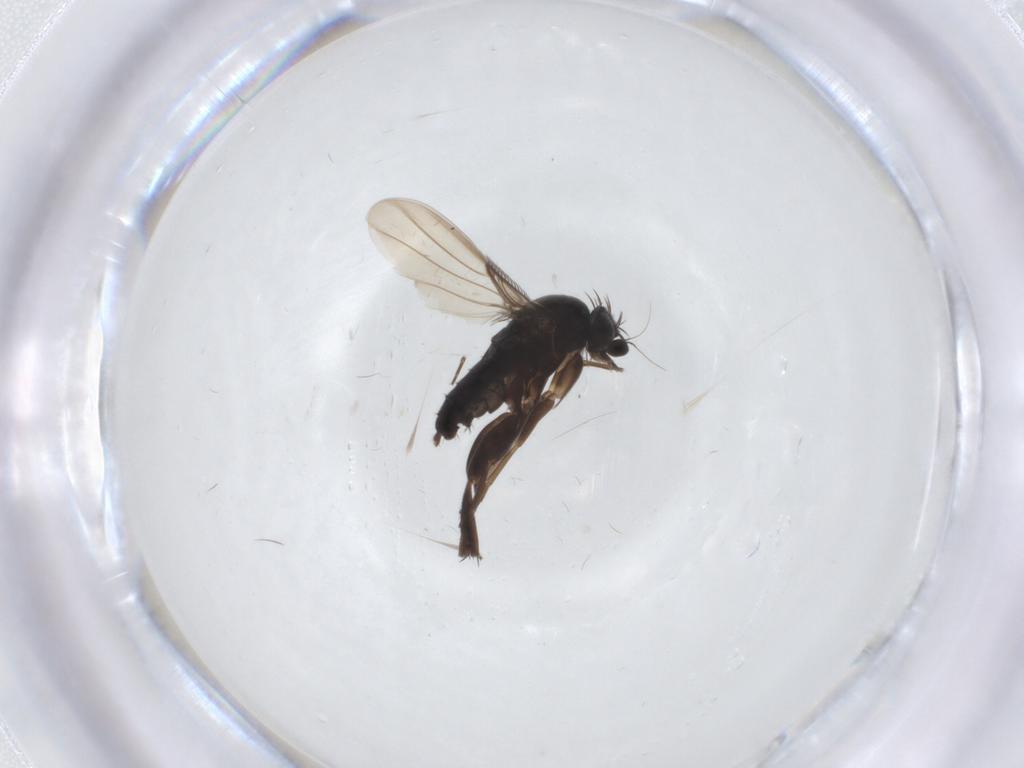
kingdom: Animalia
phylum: Arthropoda
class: Insecta
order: Diptera
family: Phoridae
